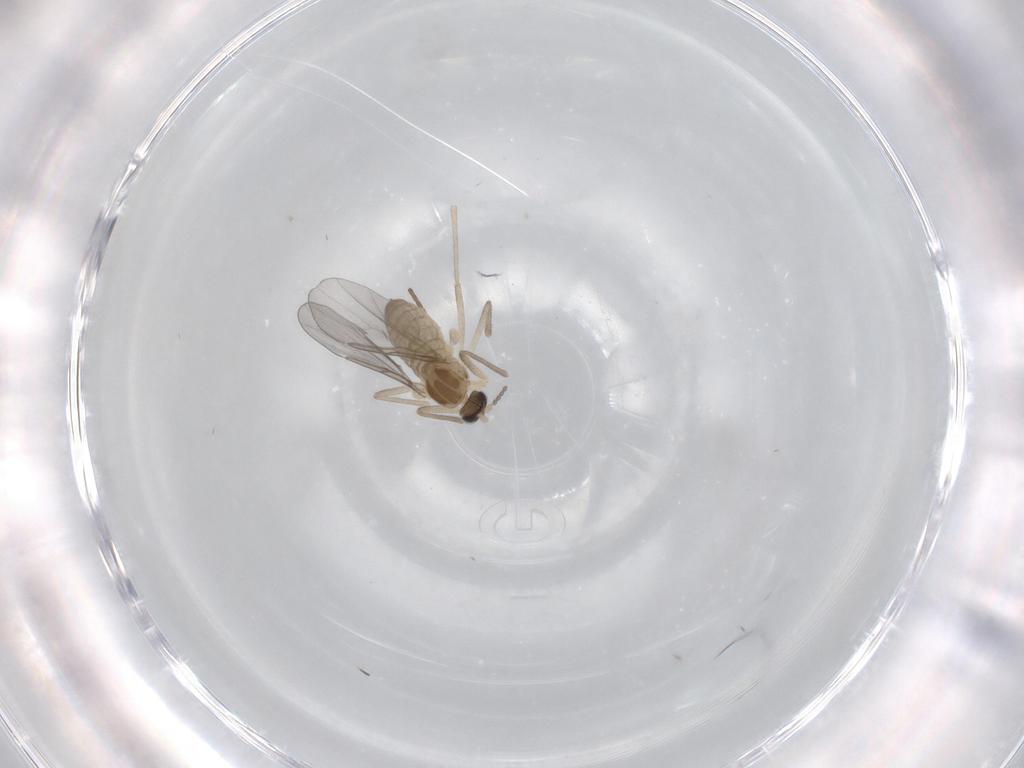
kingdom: Animalia
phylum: Arthropoda
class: Insecta
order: Diptera
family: Cecidomyiidae
